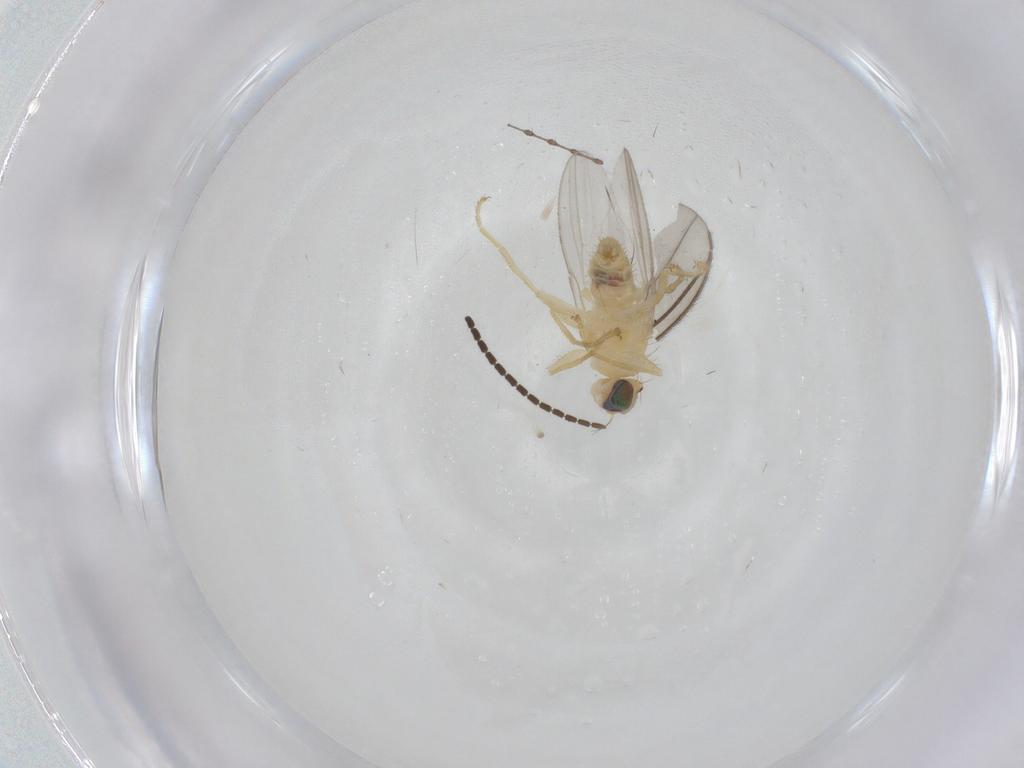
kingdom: Animalia
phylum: Arthropoda
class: Insecta
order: Diptera
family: Chyromyidae
